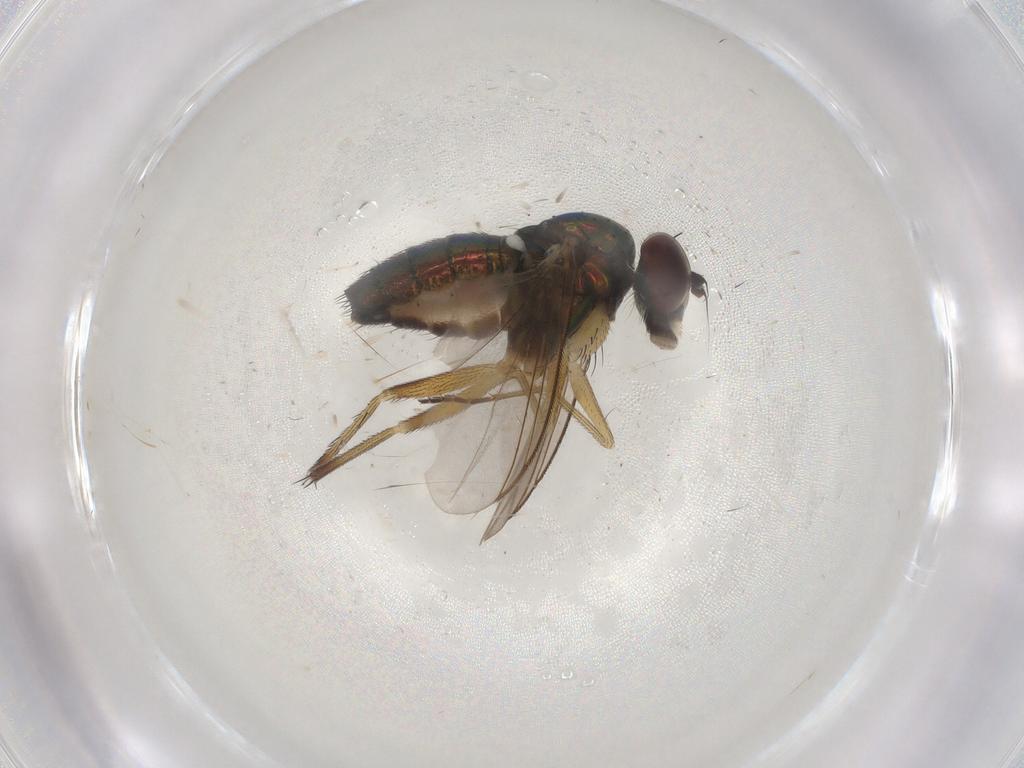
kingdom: Animalia
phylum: Arthropoda
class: Insecta
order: Diptera
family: Dolichopodidae
